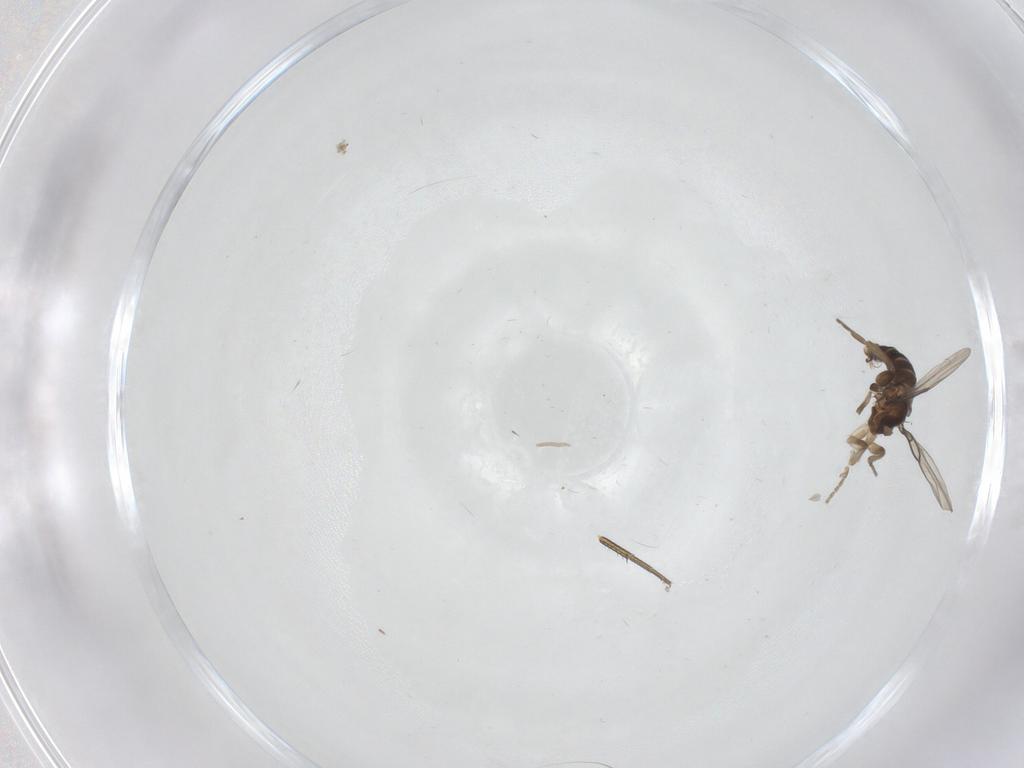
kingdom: Animalia
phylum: Arthropoda
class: Insecta
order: Diptera
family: Phoridae
